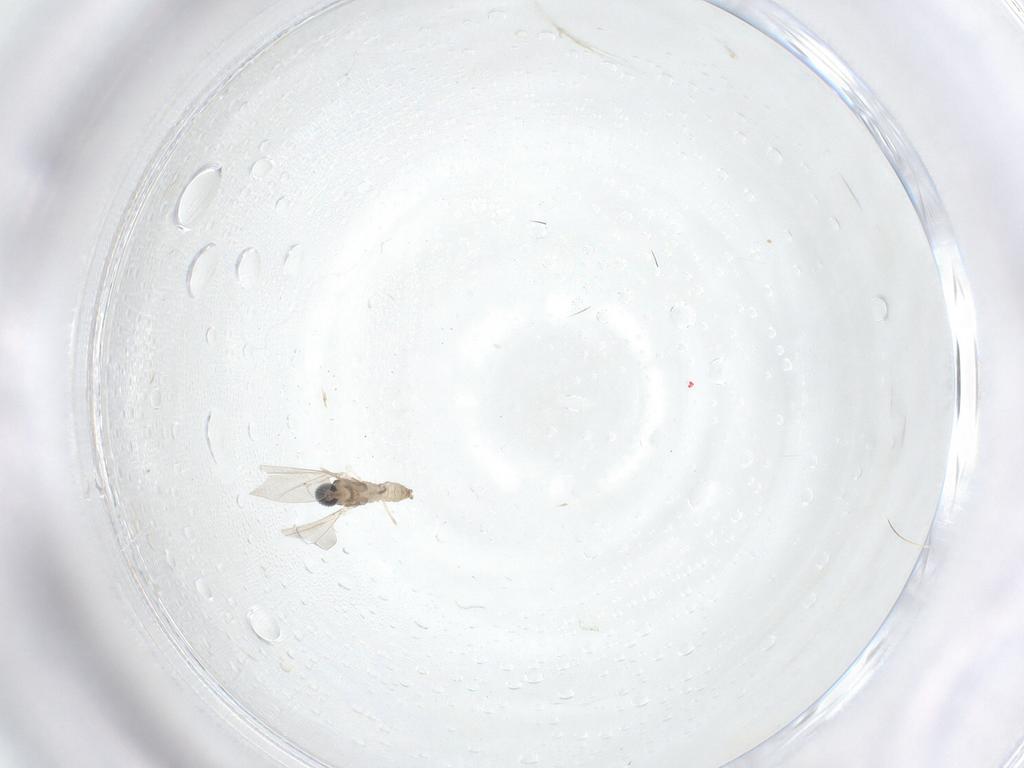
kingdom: Animalia
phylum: Arthropoda
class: Insecta
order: Diptera
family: Cecidomyiidae
